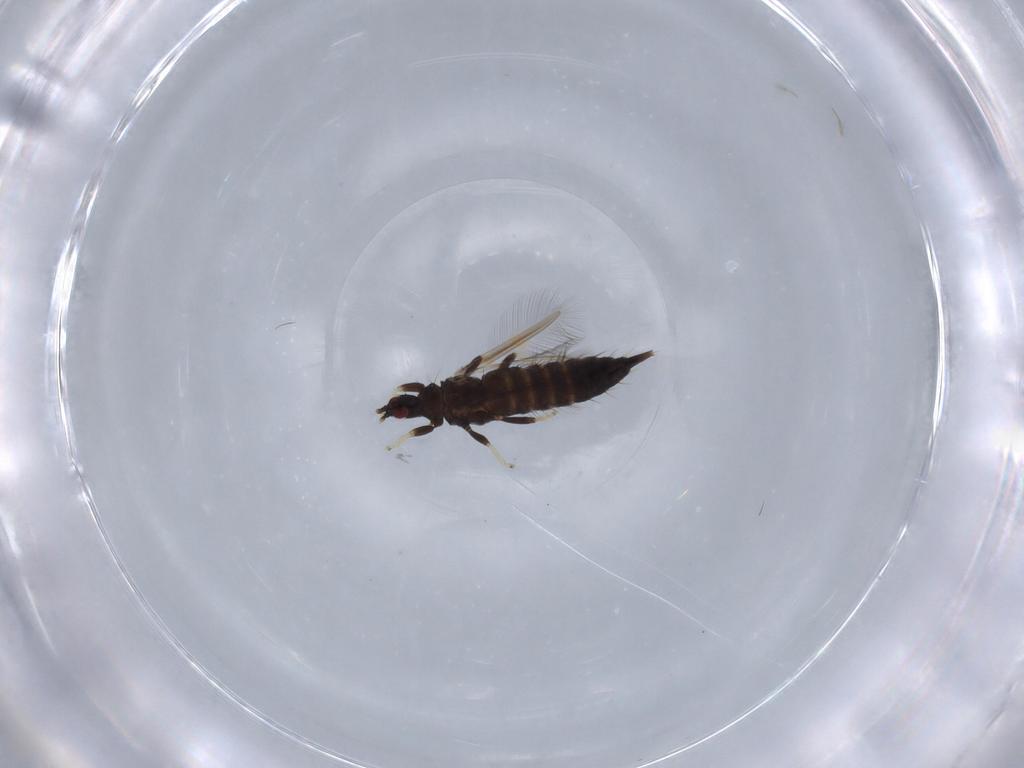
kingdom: Animalia
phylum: Arthropoda
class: Insecta
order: Thysanoptera
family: Phlaeothripidae
